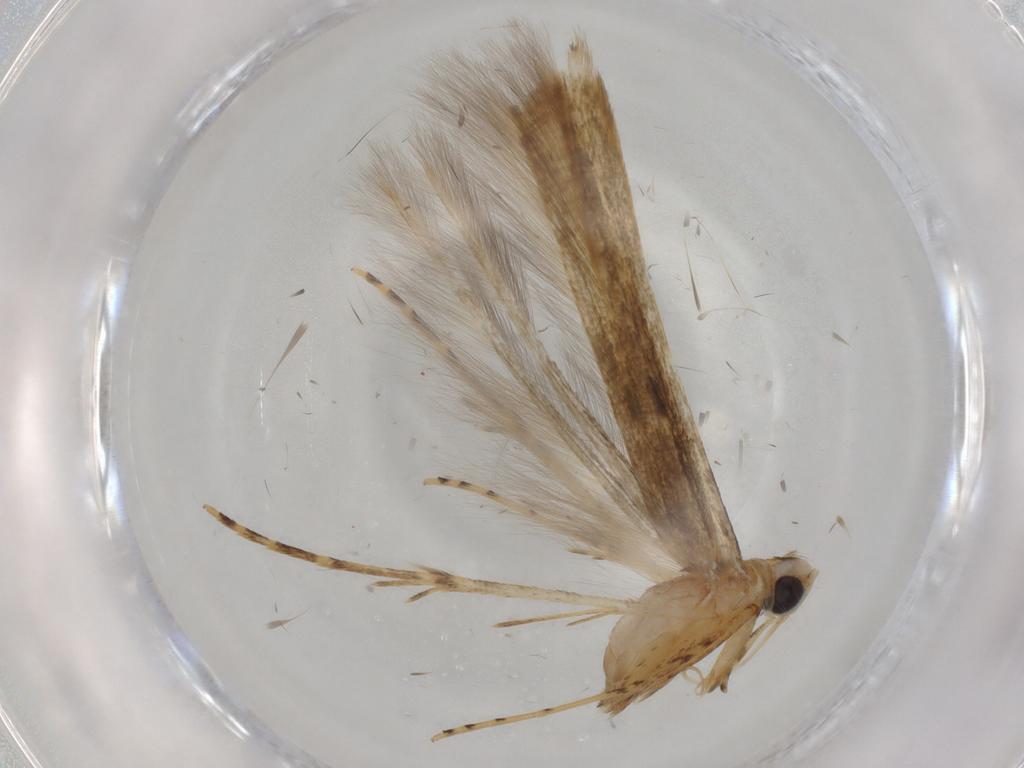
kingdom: Animalia
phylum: Arthropoda
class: Insecta
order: Lepidoptera
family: Batrachedridae
